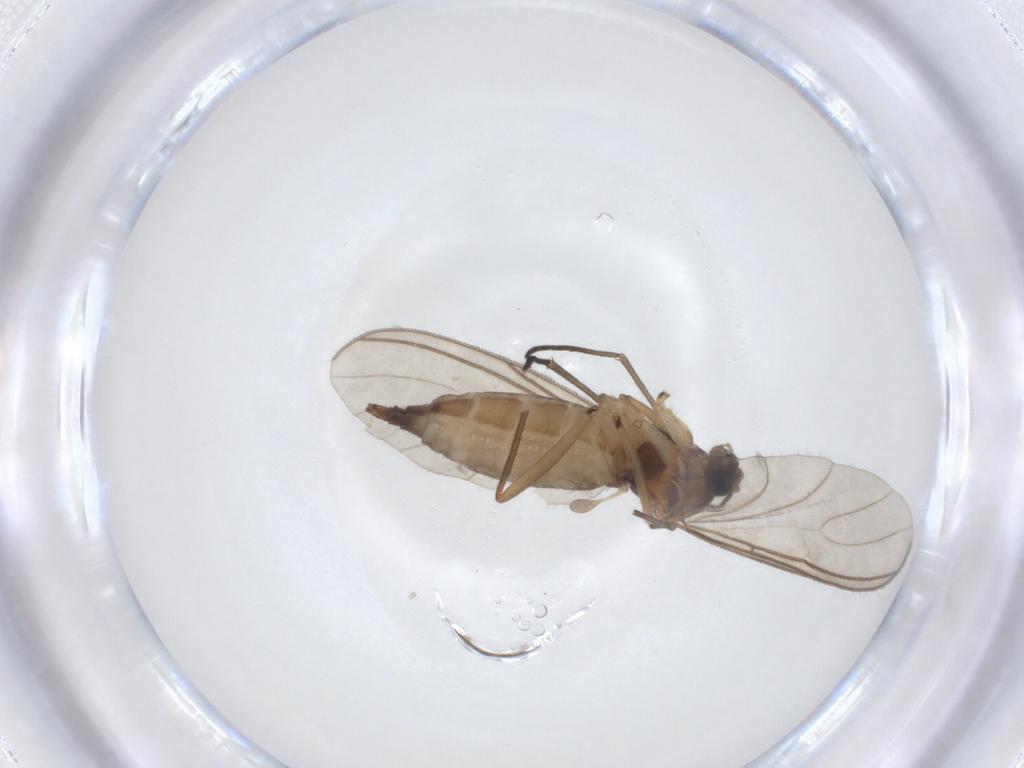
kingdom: Animalia
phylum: Arthropoda
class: Insecta
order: Diptera
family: Sciaridae
